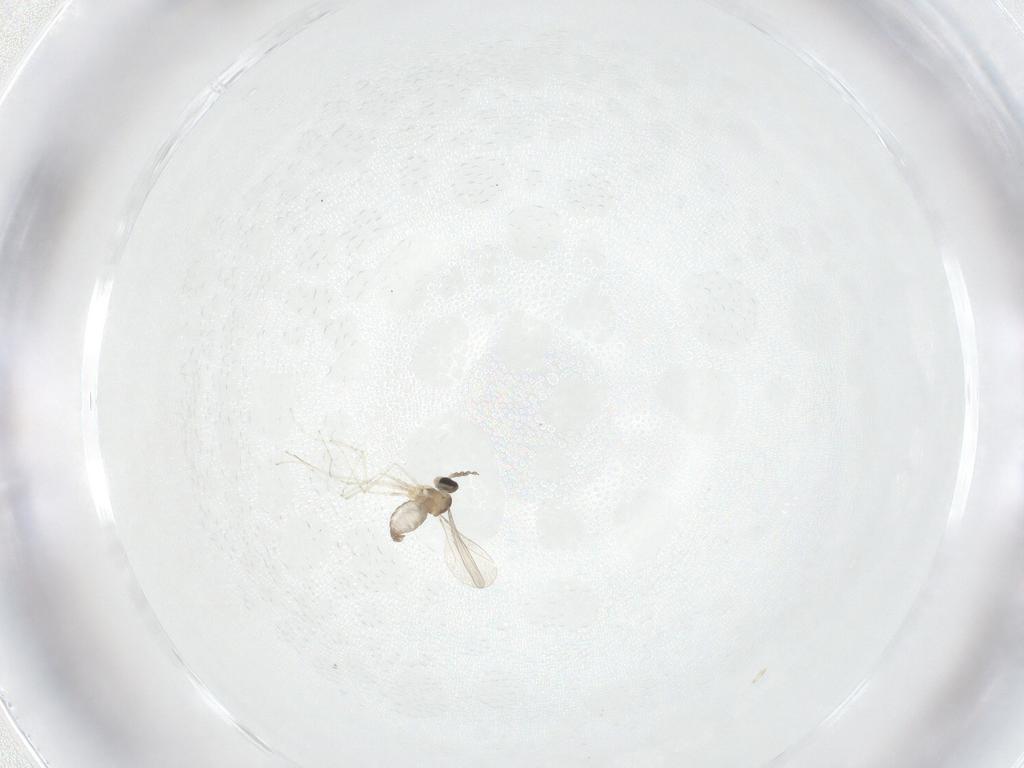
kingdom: Animalia
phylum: Arthropoda
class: Insecta
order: Diptera
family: Cecidomyiidae
